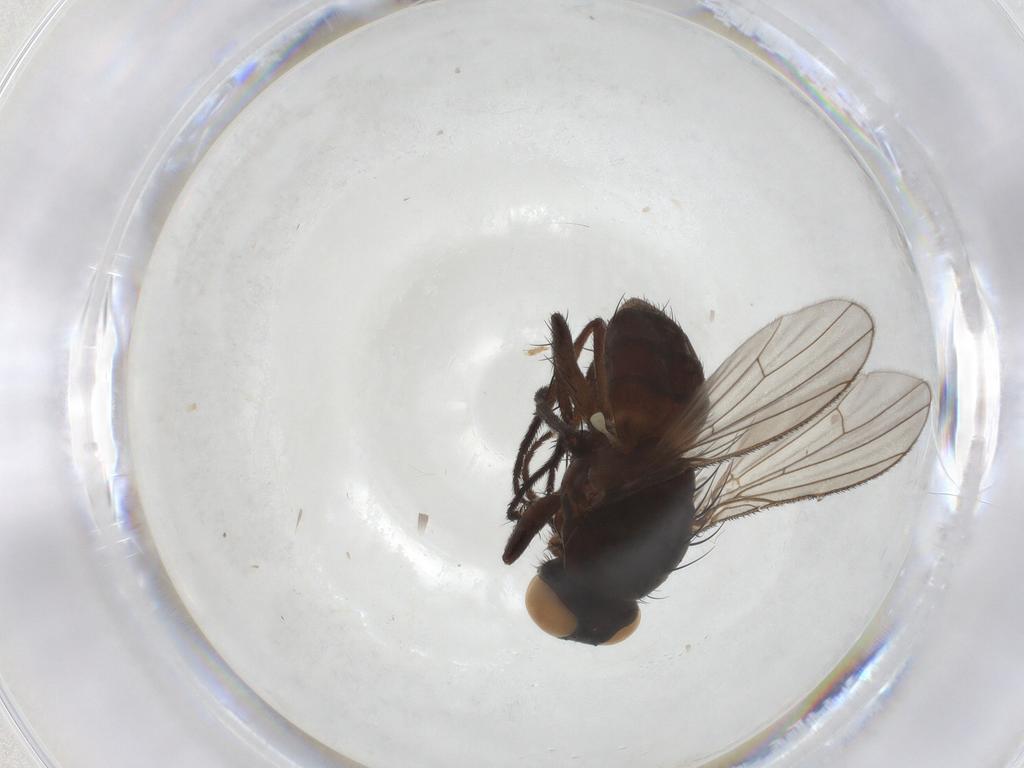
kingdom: Animalia
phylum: Arthropoda
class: Insecta
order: Diptera
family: Muscidae
